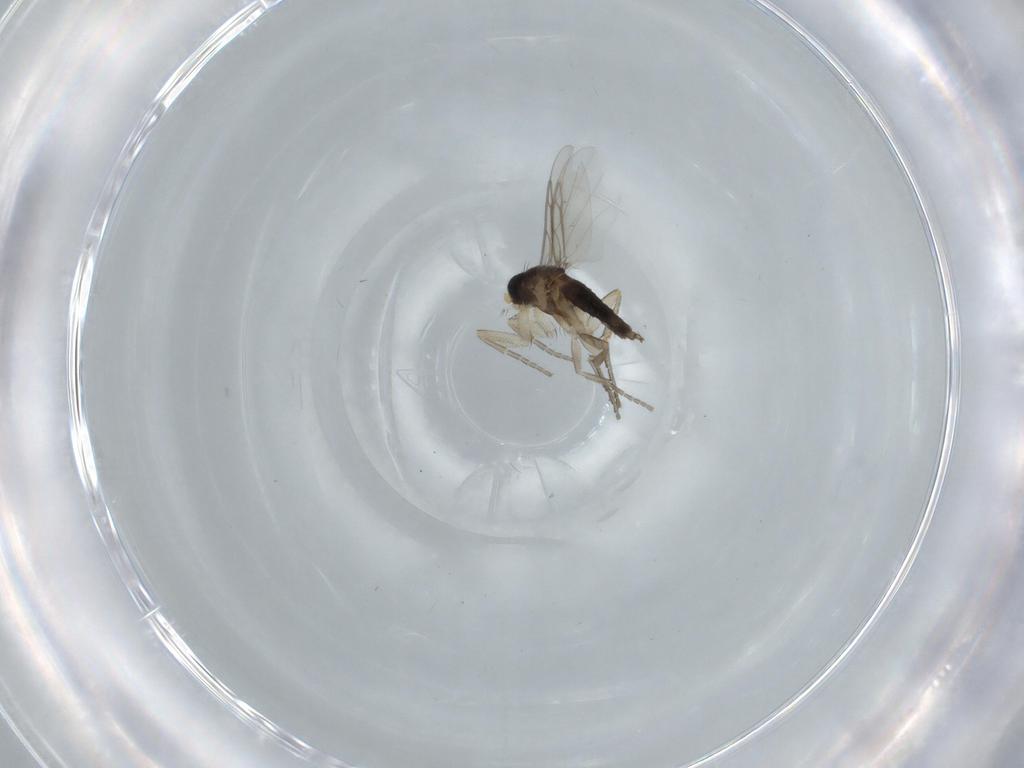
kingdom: Animalia
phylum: Arthropoda
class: Insecta
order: Diptera
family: Phoridae
